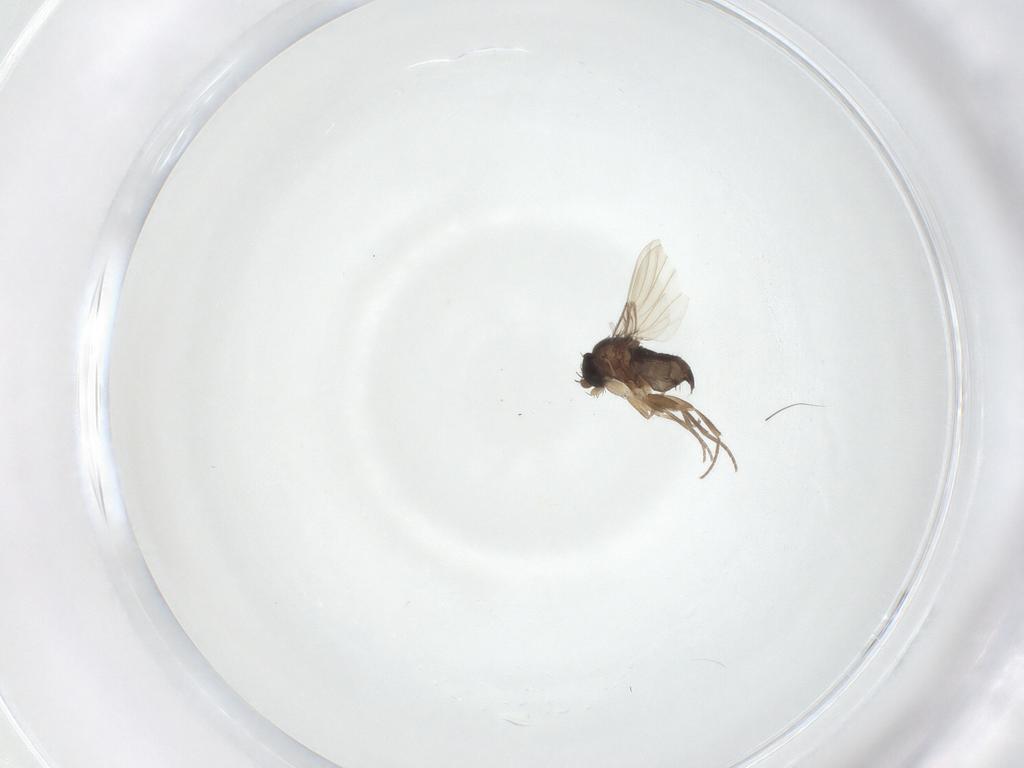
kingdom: Animalia
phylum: Arthropoda
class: Insecta
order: Diptera
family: Phoridae
